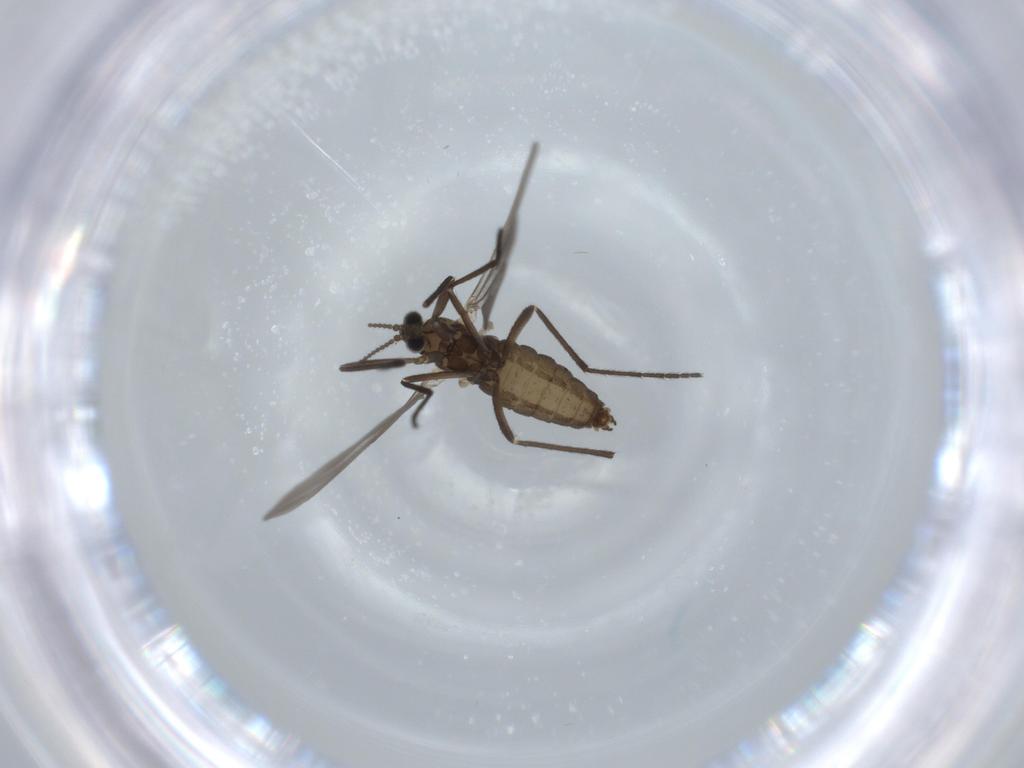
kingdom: Animalia
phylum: Arthropoda
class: Insecta
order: Diptera
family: Cecidomyiidae
